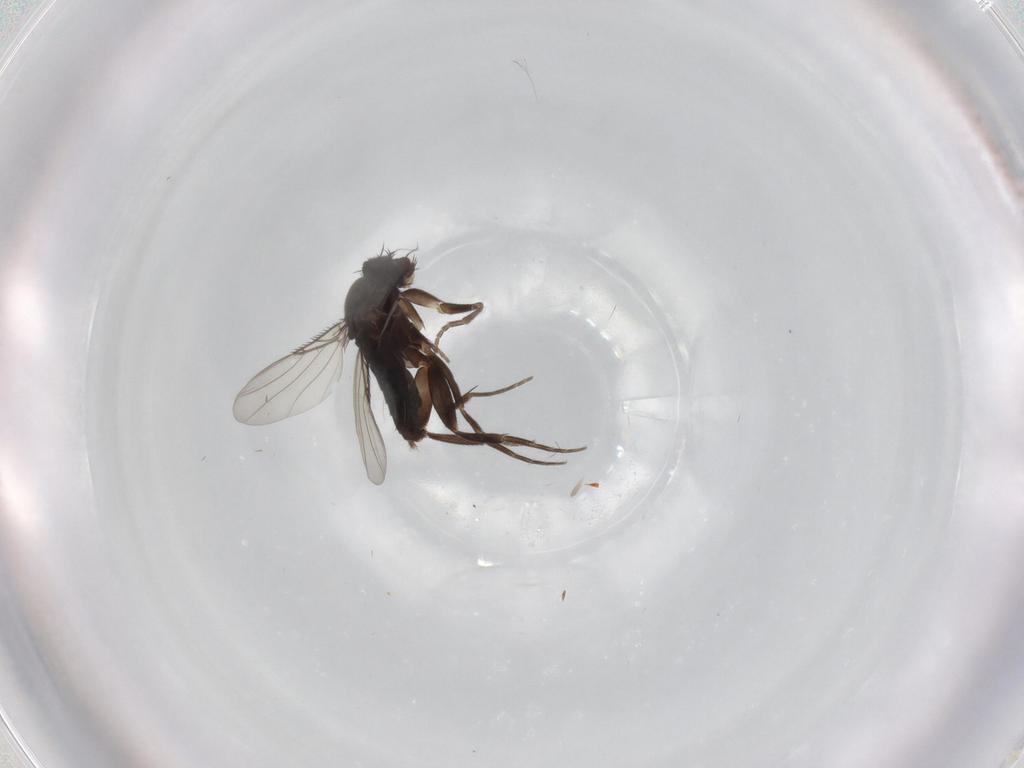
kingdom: Animalia
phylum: Arthropoda
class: Insecta
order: Diptera
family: Phoridae
